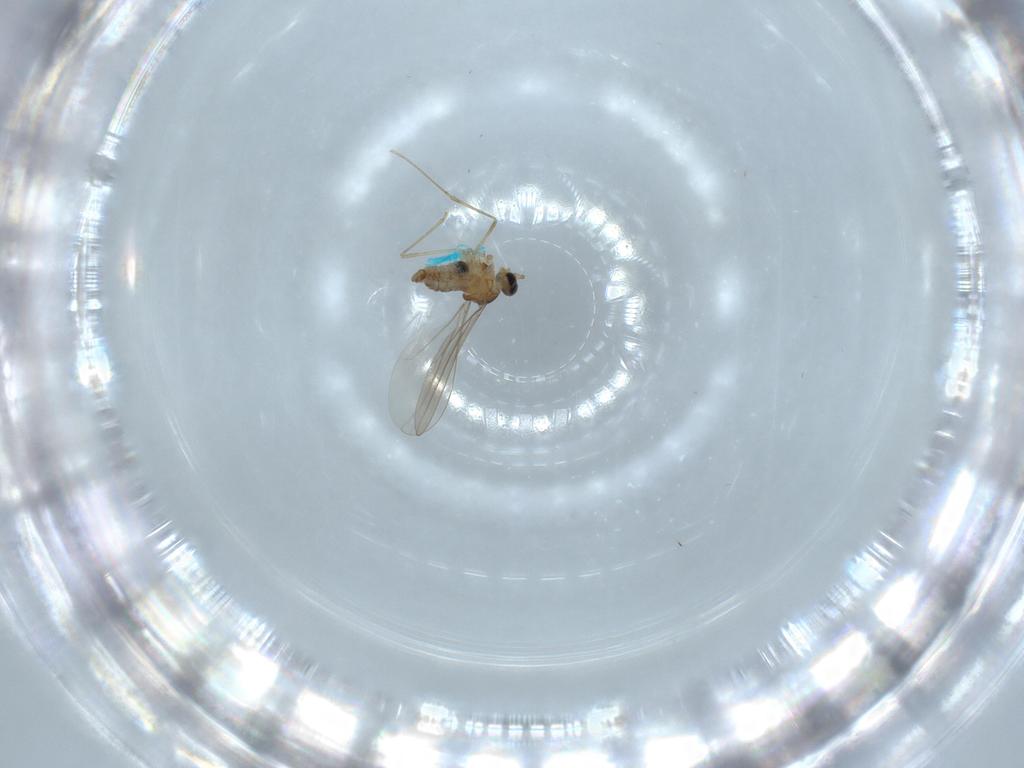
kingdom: Animalia
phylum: Arthropoda
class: Insecta
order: Diptera
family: Cecidomyiidae
